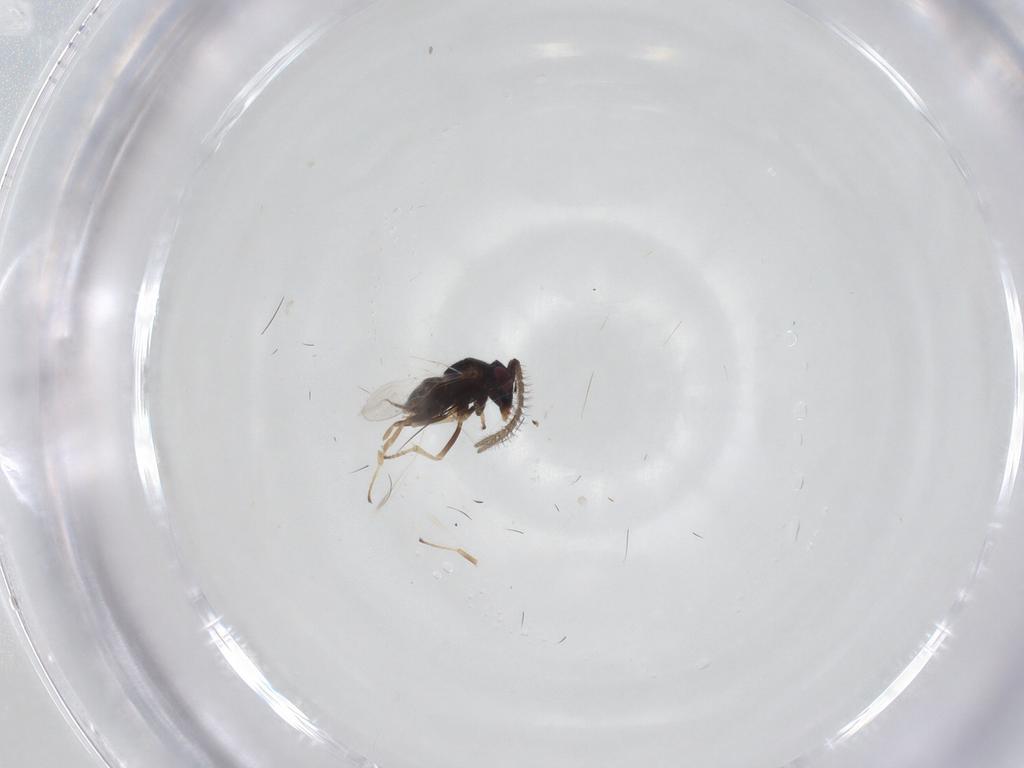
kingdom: Animalia
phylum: Arthropoda
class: Insecta
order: Hymenoptera
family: Encyrtidae
